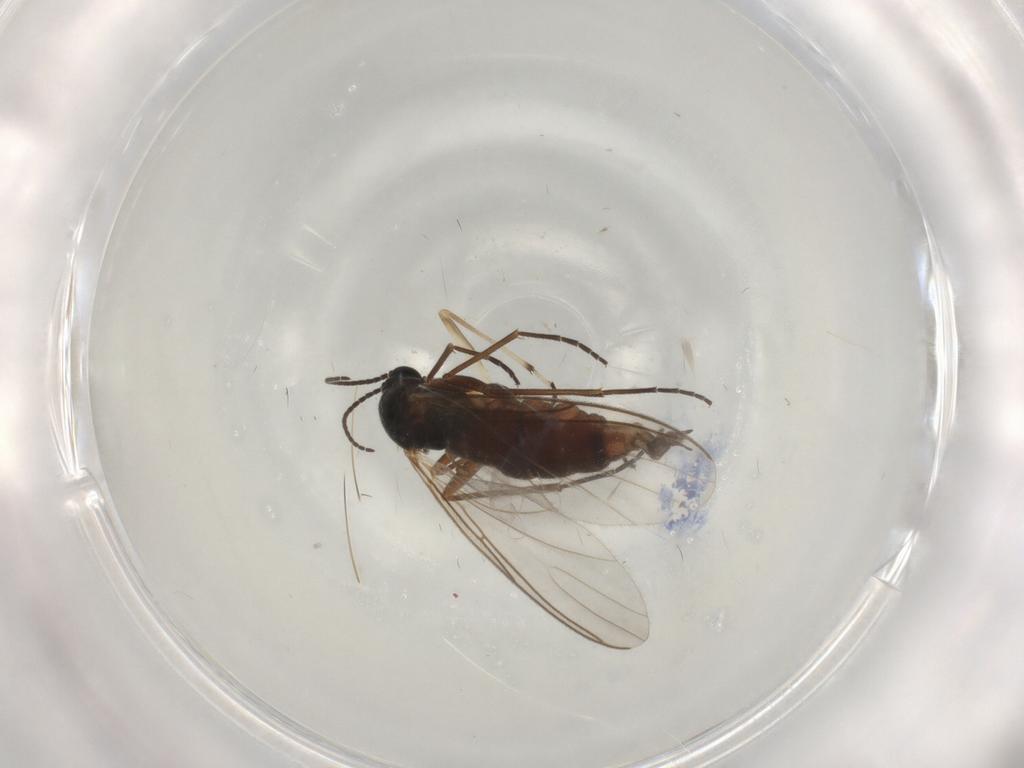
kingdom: Animalia
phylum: Arthropoda
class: Insecta
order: Diptera
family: Sciaridae
